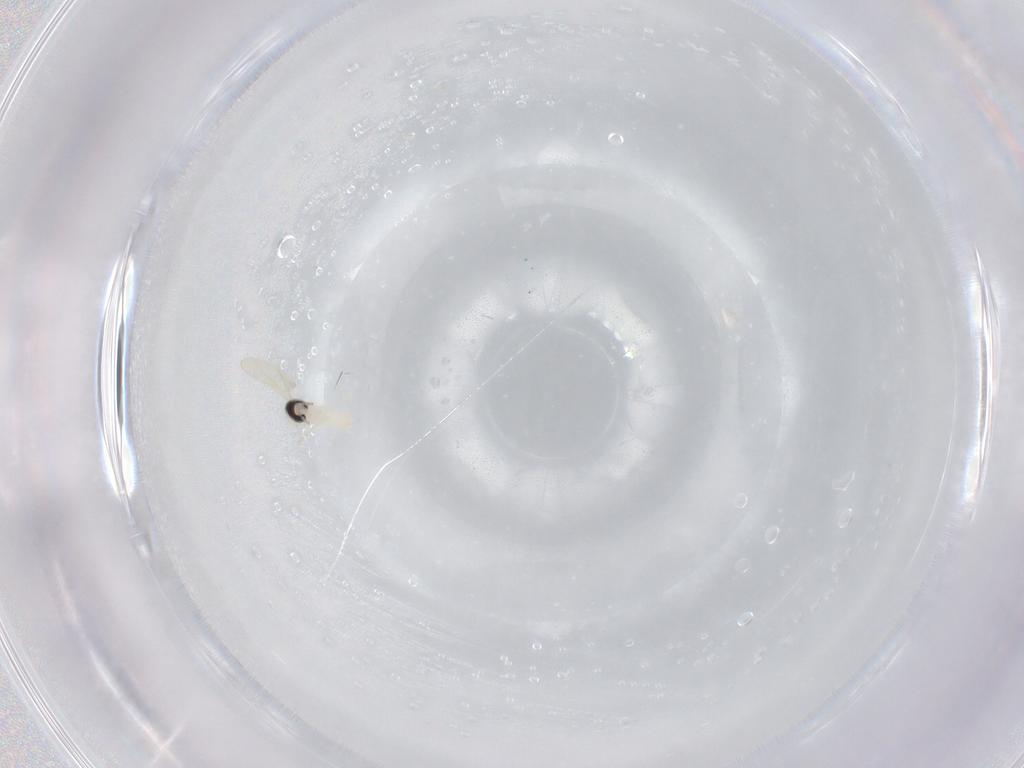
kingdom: Animalia
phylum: Arthropoda
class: Insecta
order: Diptera
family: Cecidomyiidae
